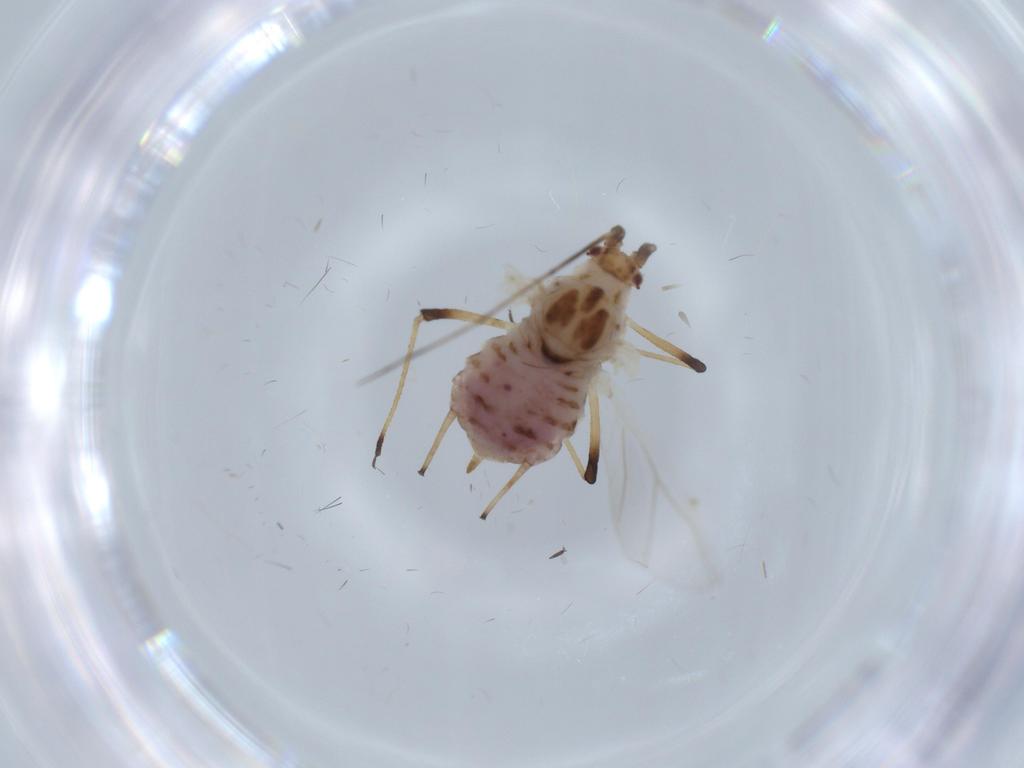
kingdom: Animalia
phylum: Arthropoda
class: Insecta
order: Hemiptera
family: Aphididae
